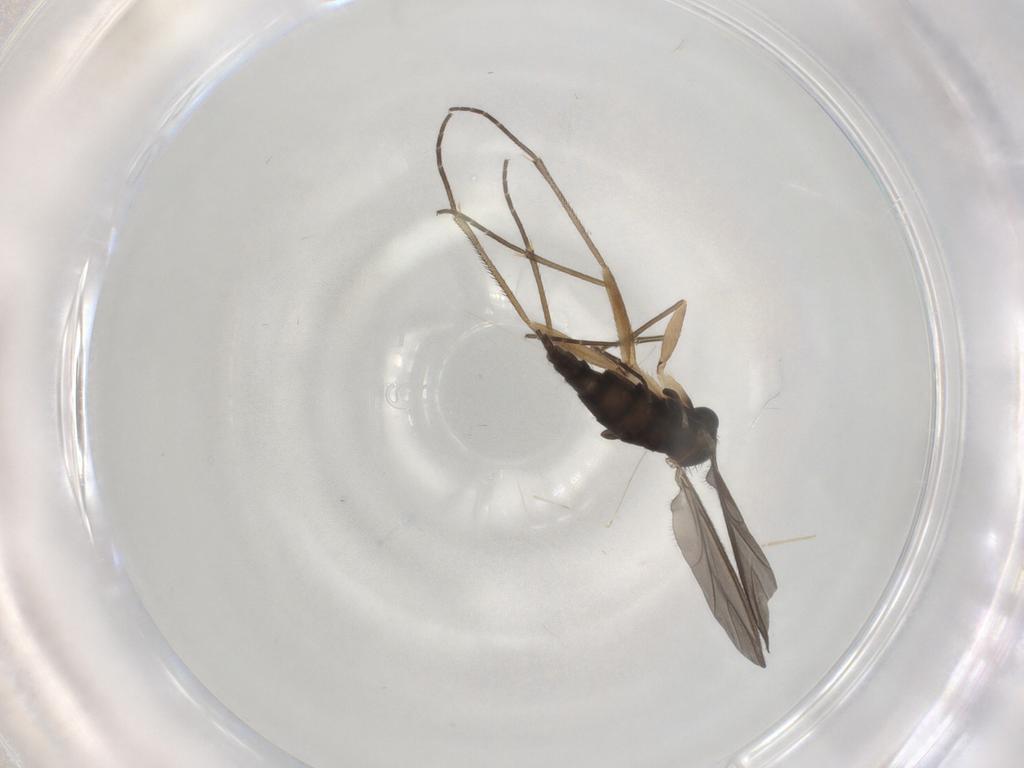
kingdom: Animalia
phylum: Arthropoda
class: Insecta
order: Diptera
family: Sciaridae
